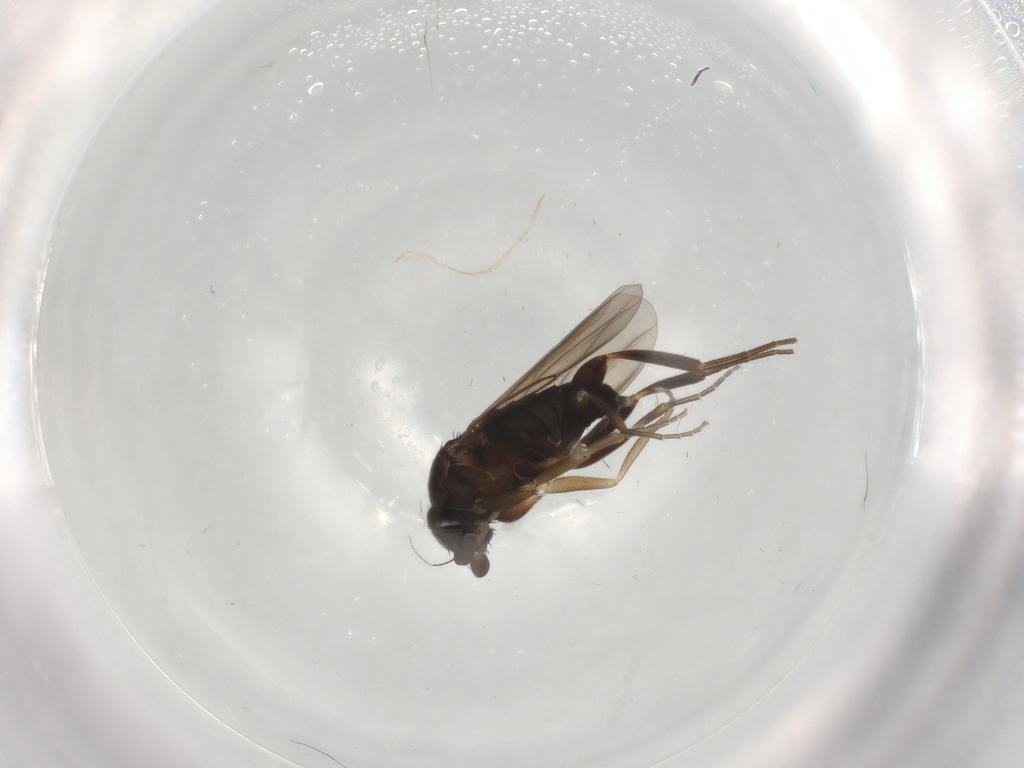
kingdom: Animalia
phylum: Arthropoda
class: Insecta
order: Diptera
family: Phoridae
